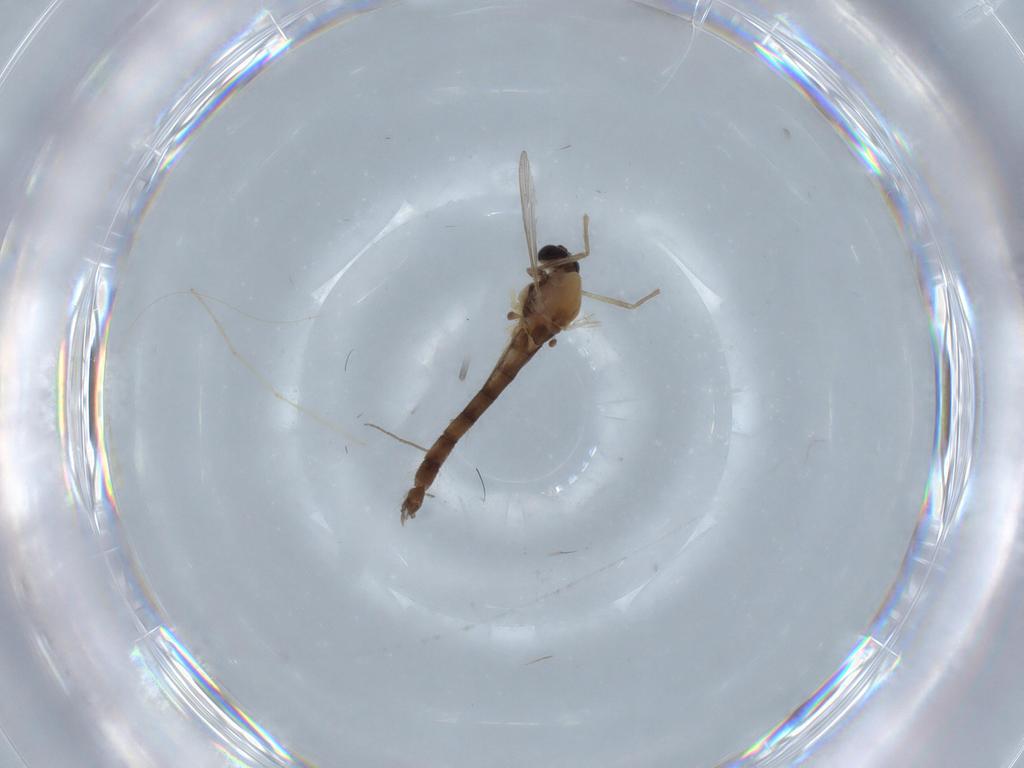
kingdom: Animalia
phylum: Arthropoda
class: Insecta
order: Diptera
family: Chironomidae
